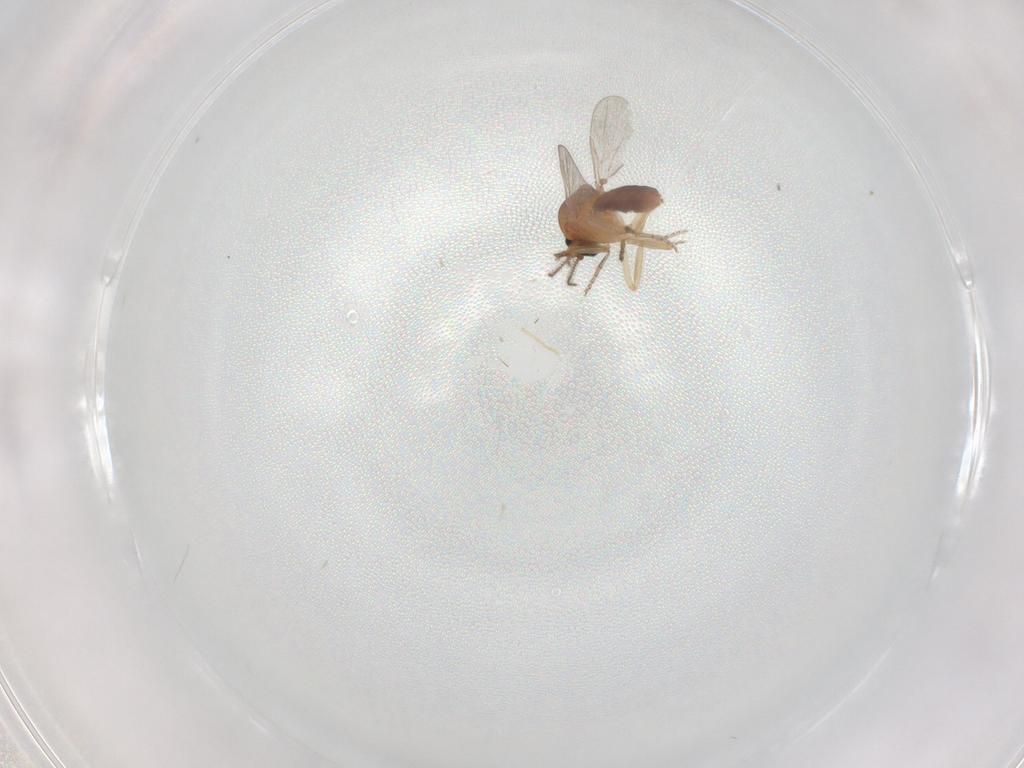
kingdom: Animalia
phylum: Arthropoda
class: Insecta
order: Diptera
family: Ceratopogonidae
